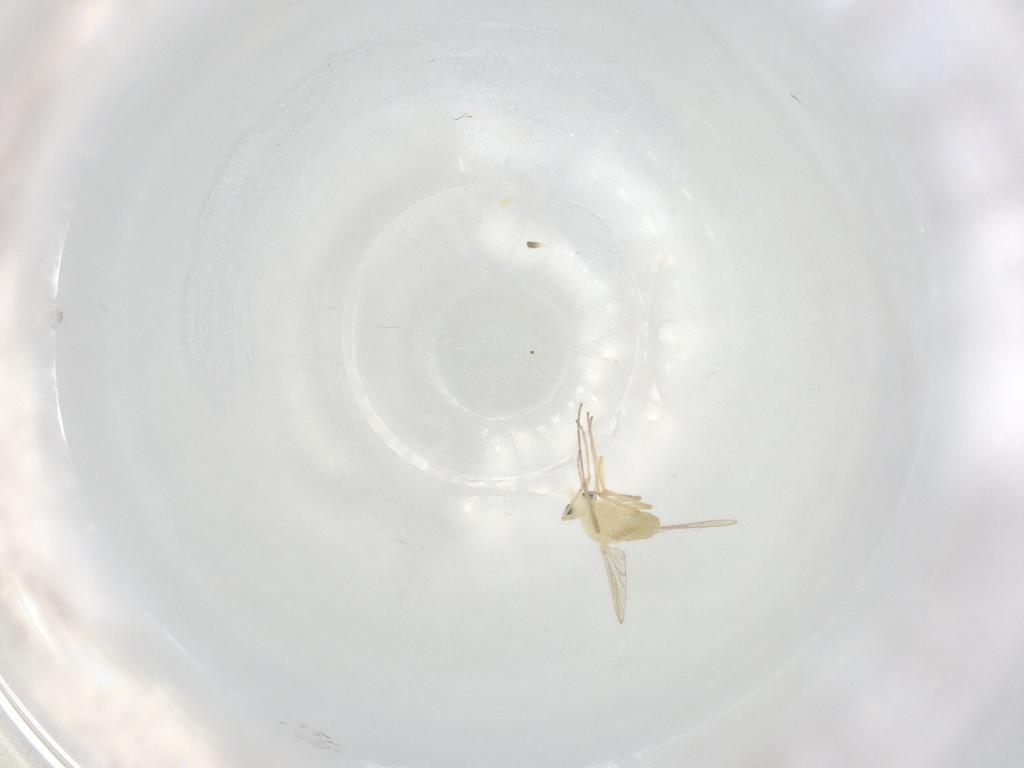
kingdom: Animalia
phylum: Arthropoda
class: Insecta
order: Diptera
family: Chironomidae
